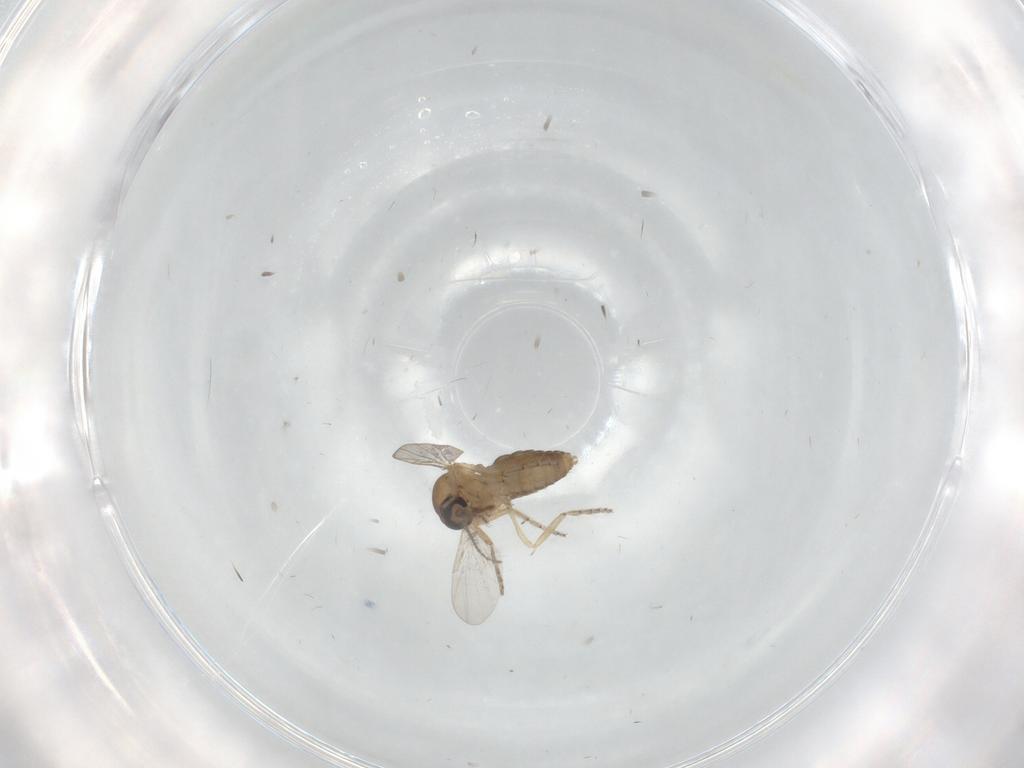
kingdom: Animalia
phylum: Arthropoda
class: Insecta
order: Diptera
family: Ceratopogonidae
